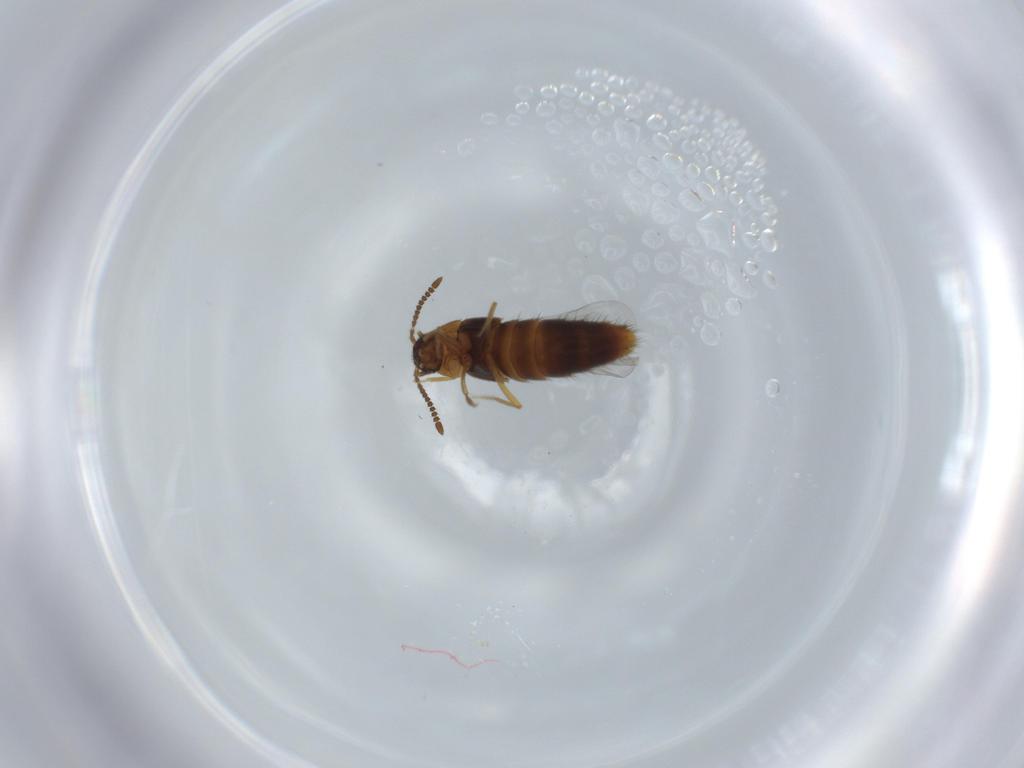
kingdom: Animalia
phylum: Arthropoda
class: Insecta
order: Coleoptera
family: Staphylinidae
